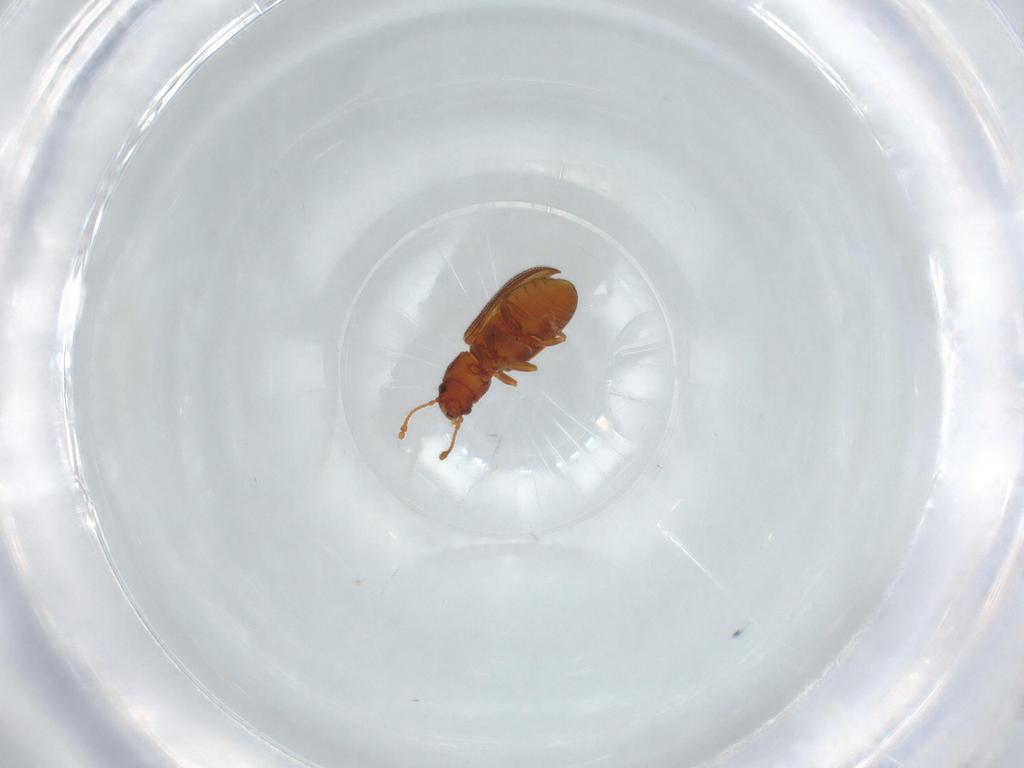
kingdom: Animalia
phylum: Arthropoda
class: Insecta
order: Coleoptera
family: Mycetophagidae
